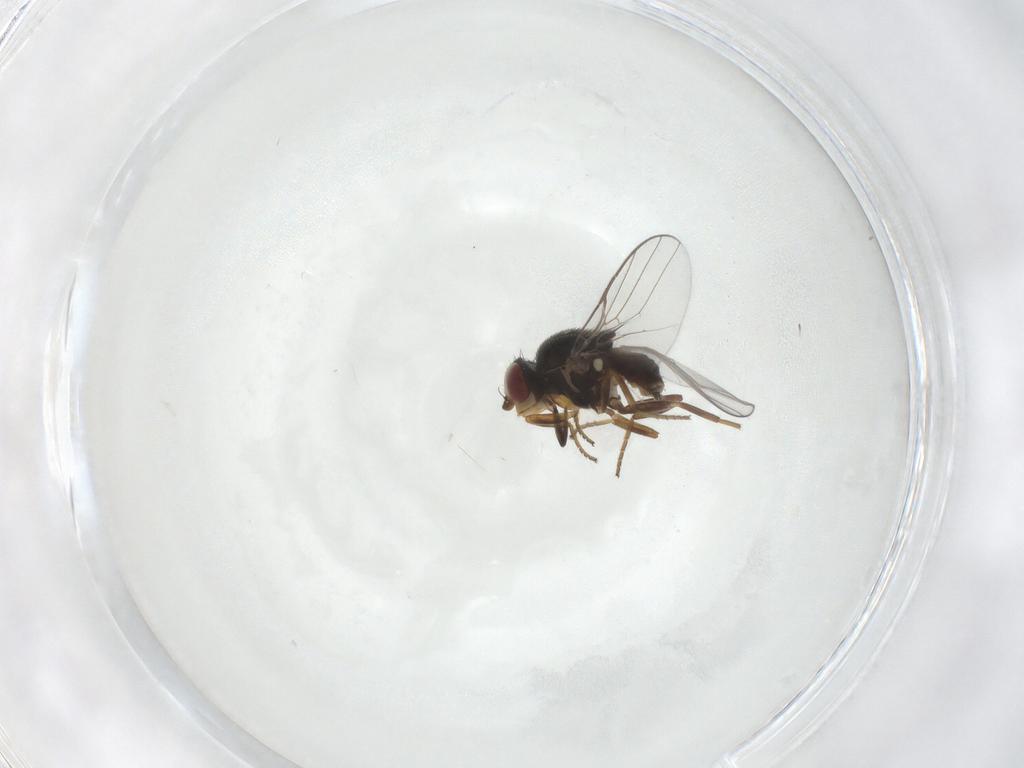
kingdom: Animalia
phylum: Arthropoda
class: Insecta
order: Diptera
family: Chloropidae
